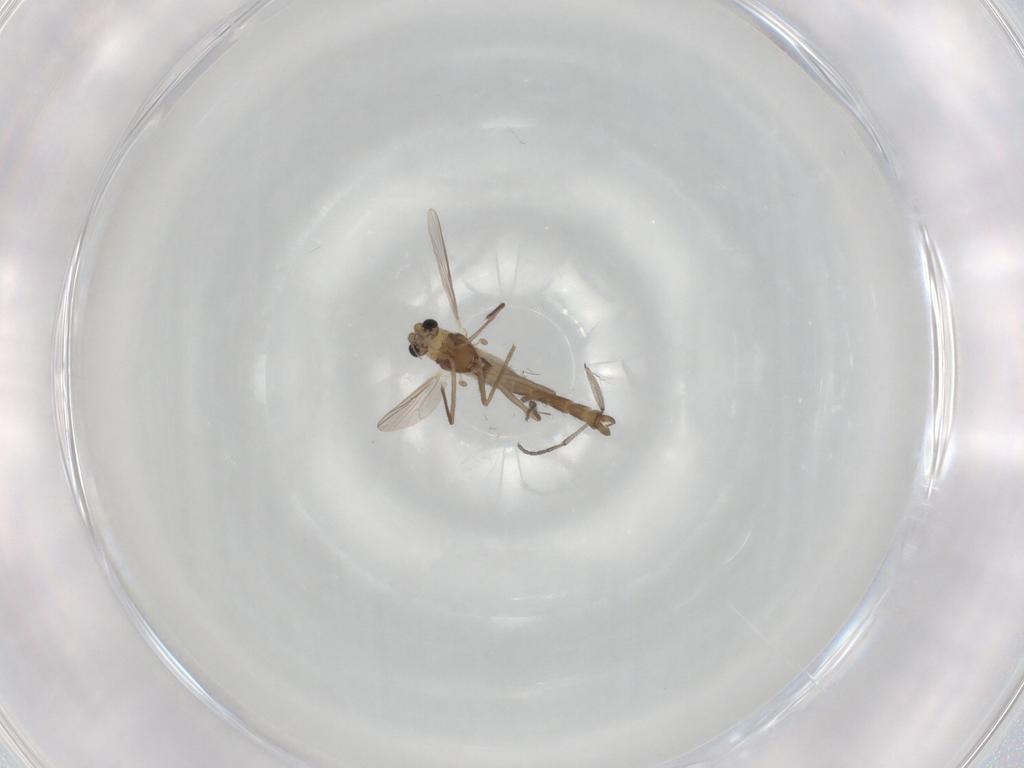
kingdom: Animalia
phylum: Arthropoda
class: Insecta
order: Diptera
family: Chironomidae
